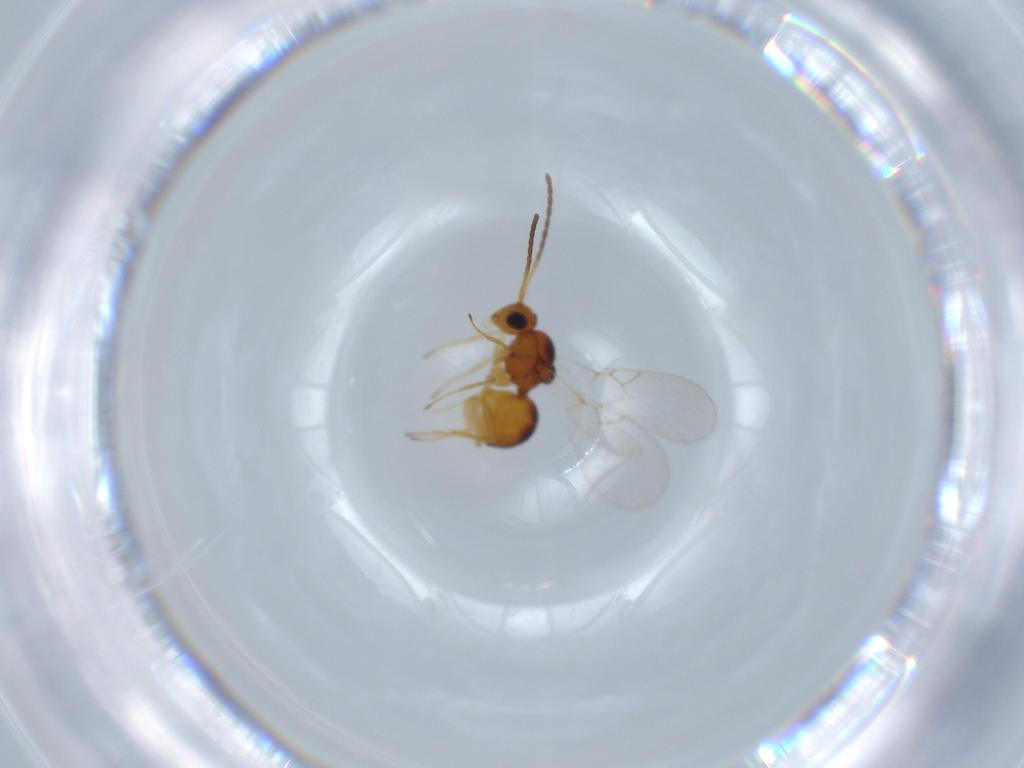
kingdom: Animalia
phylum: Arthropoda
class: Insecta
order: Hymenoptera
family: Figitidae
